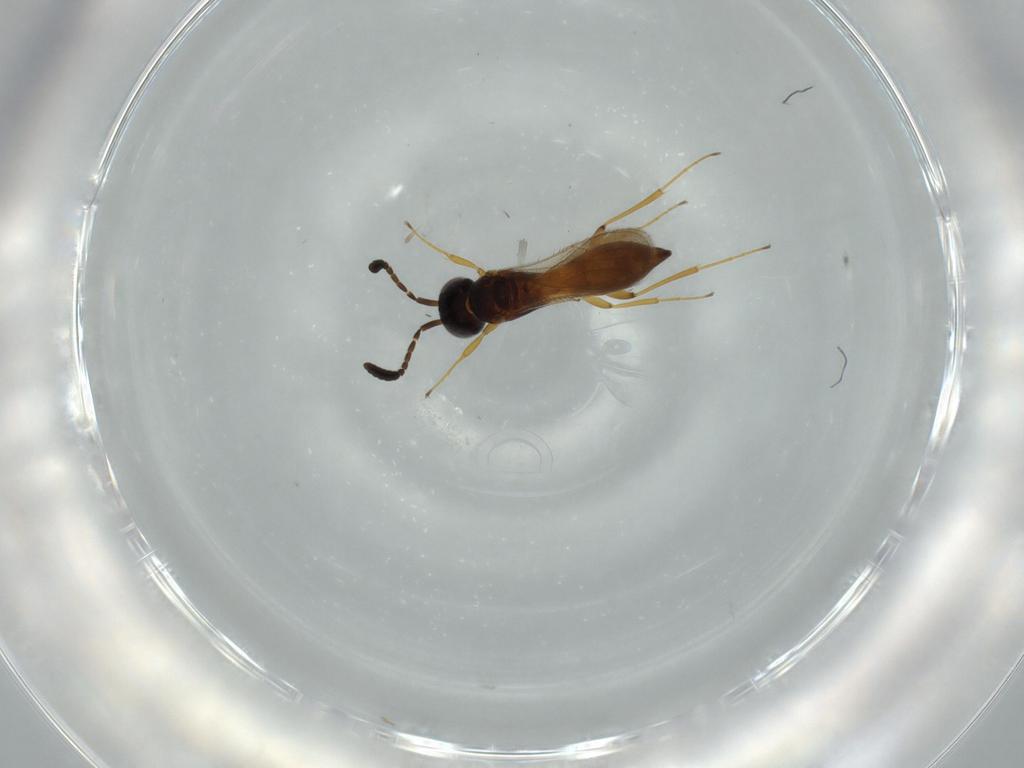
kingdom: Animalia
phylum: Arthropoda
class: Insecta
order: Hymenoptera
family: Scelionidae
